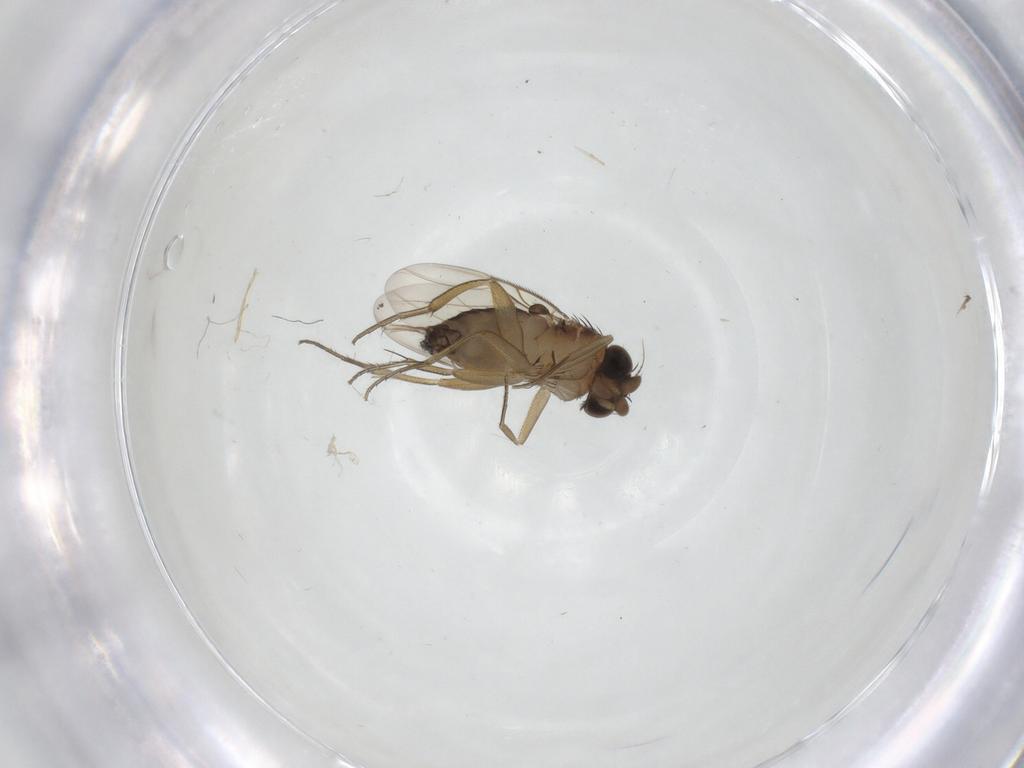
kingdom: Animalia
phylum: Arthropoda
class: Insecta
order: Diptera
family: Phoridae
